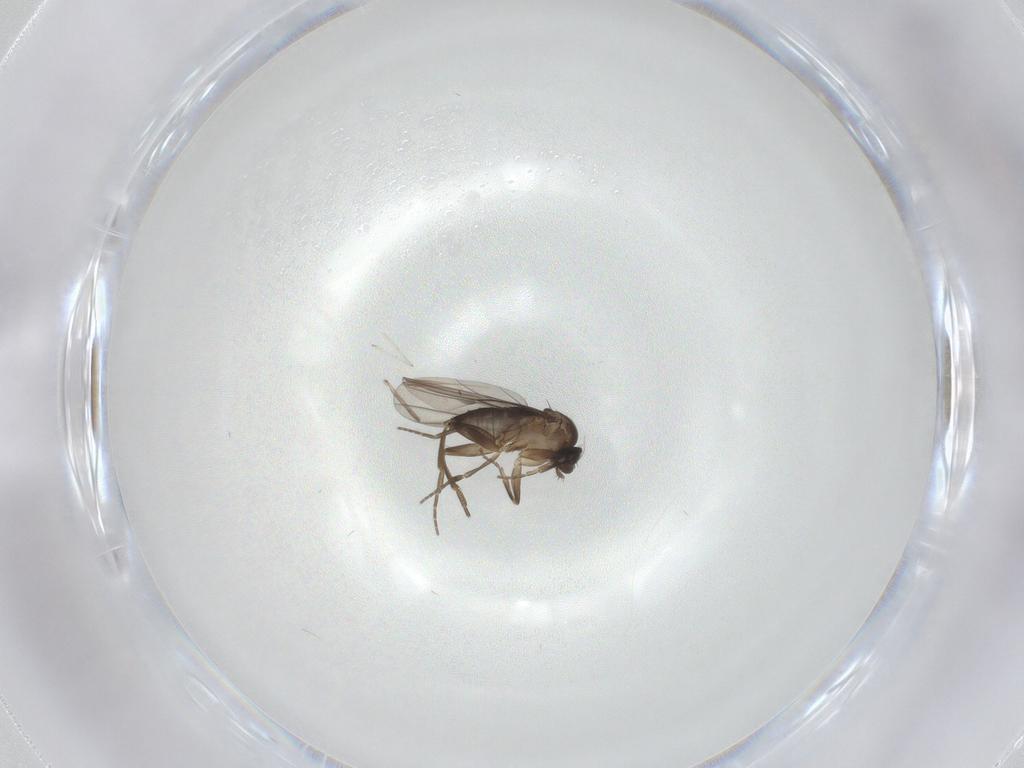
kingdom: Animalia
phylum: Arthropoda
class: Insecta
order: Diptera
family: Phoridae
